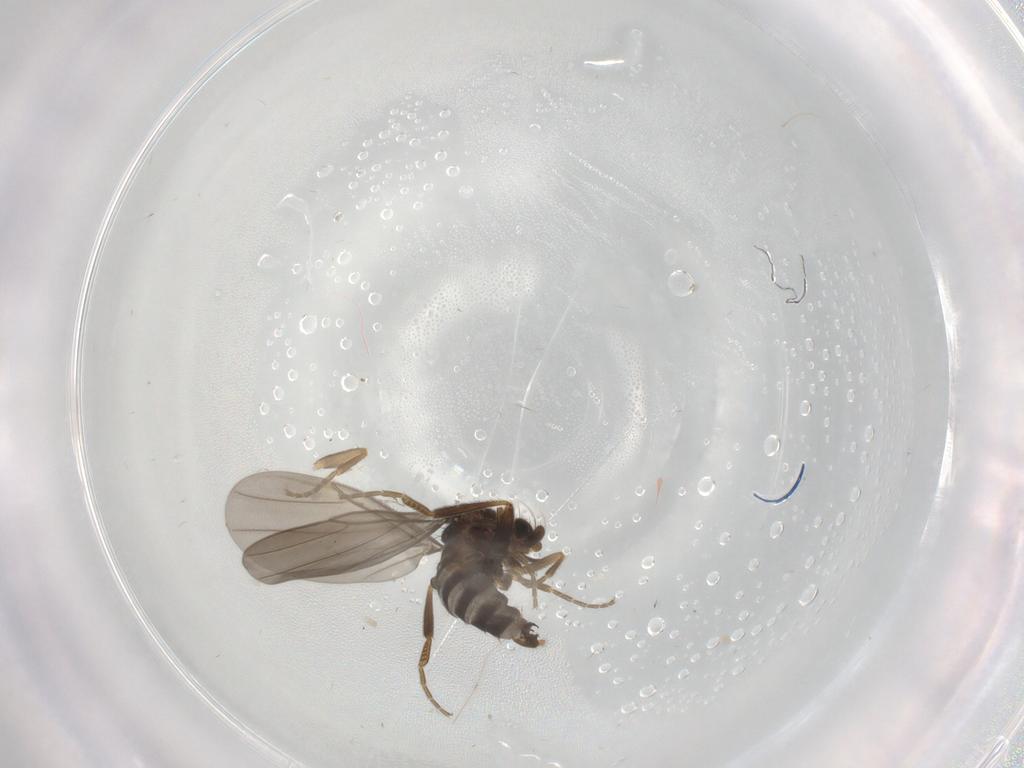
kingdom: Animalia
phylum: Arthropoda
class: Insecta
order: Diptera
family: Phoridae
